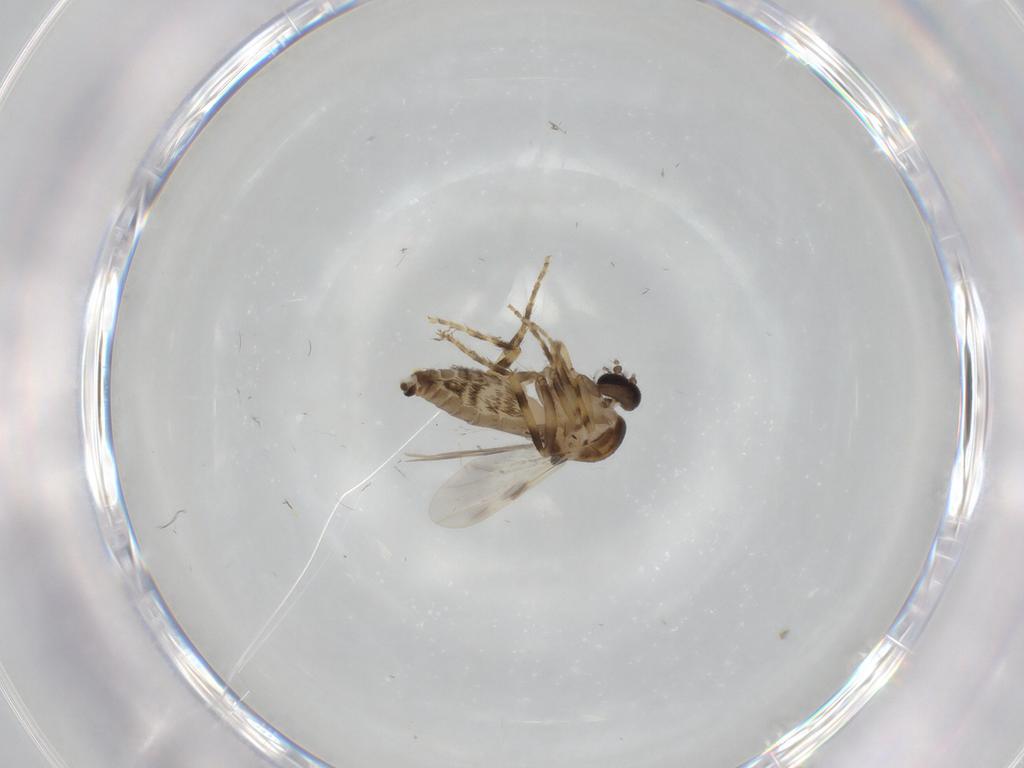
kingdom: Animalia
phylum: Arthropoda
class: Insecta
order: Diptera
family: Ceratopogonidae
